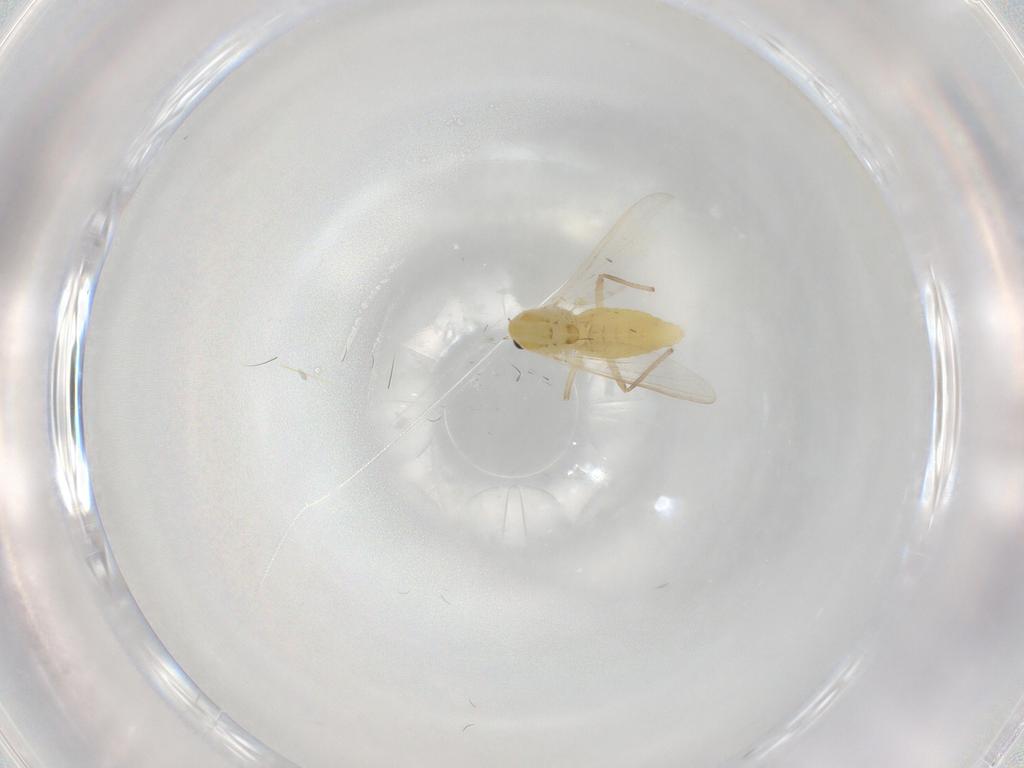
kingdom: Animalia
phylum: Arthropoda
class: Insecta
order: Diptera
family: Chironomidae
